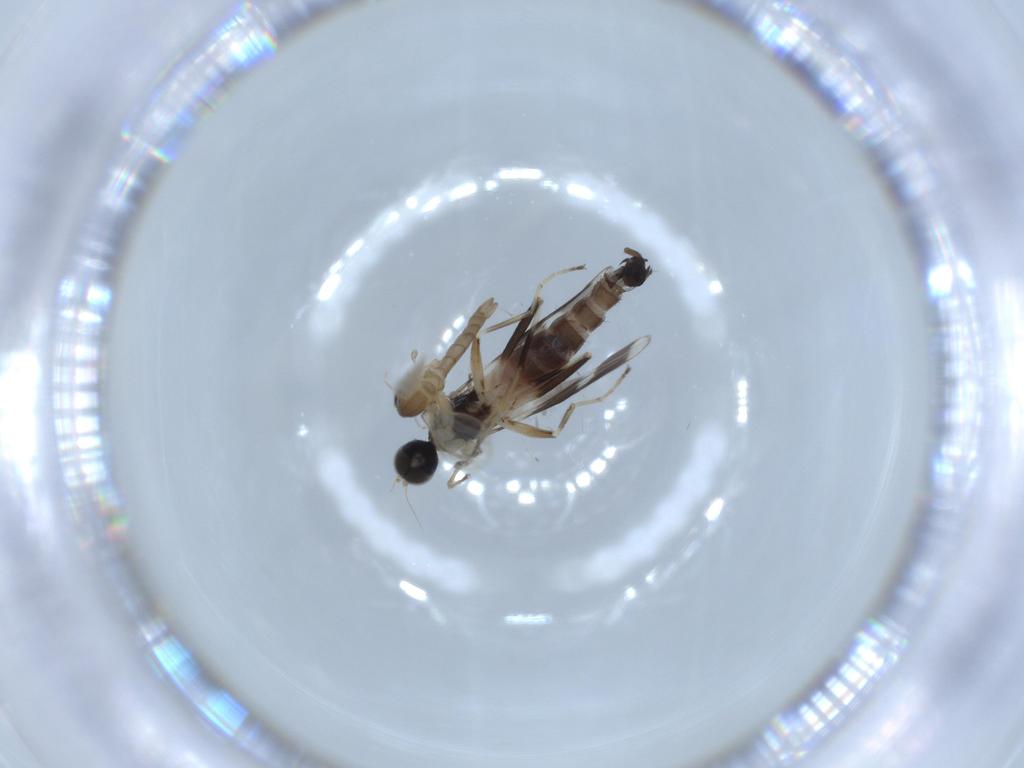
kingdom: Animalia
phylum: Arthropoda
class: Insecta
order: Diptera
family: Hybotidae
